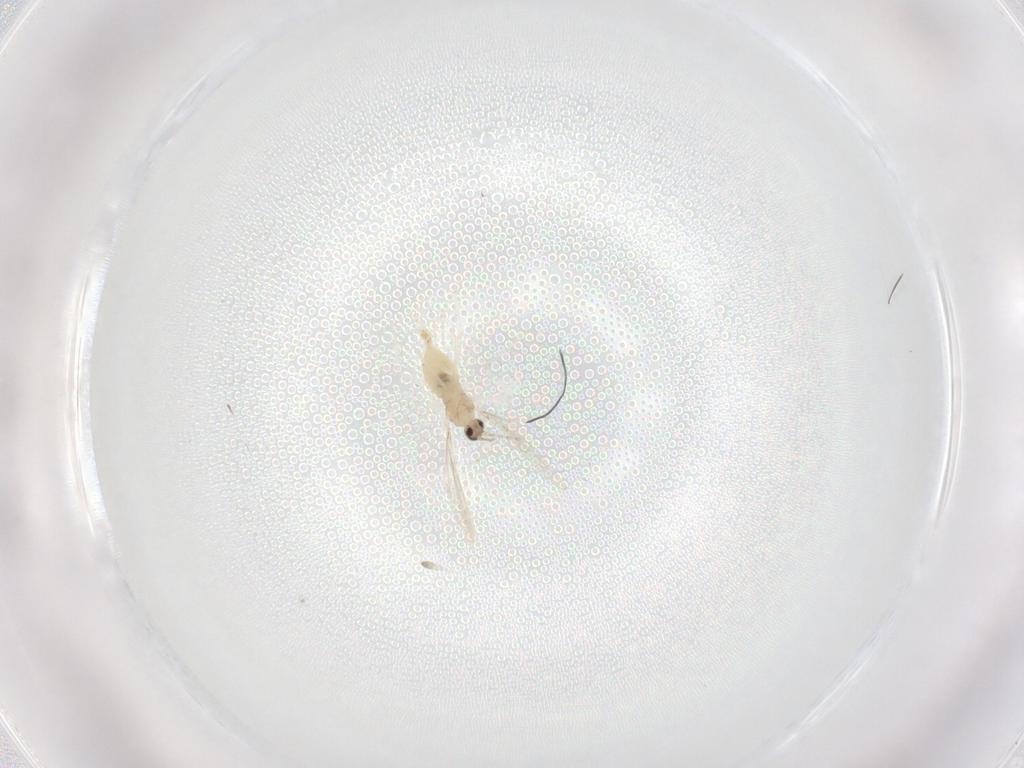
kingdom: Animalia
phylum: Arthropoda
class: Insecta
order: Diptera
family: Cecidomyiidae
